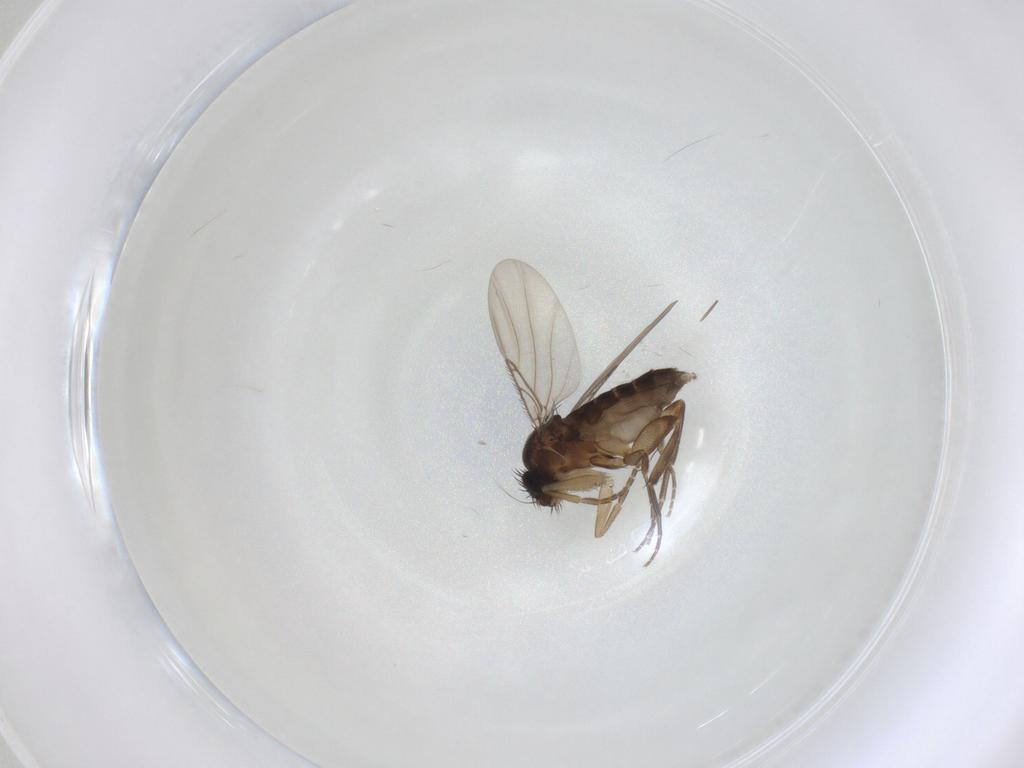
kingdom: Animalia
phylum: Arthropoda
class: Insecta
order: Diptera
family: Phoridae
